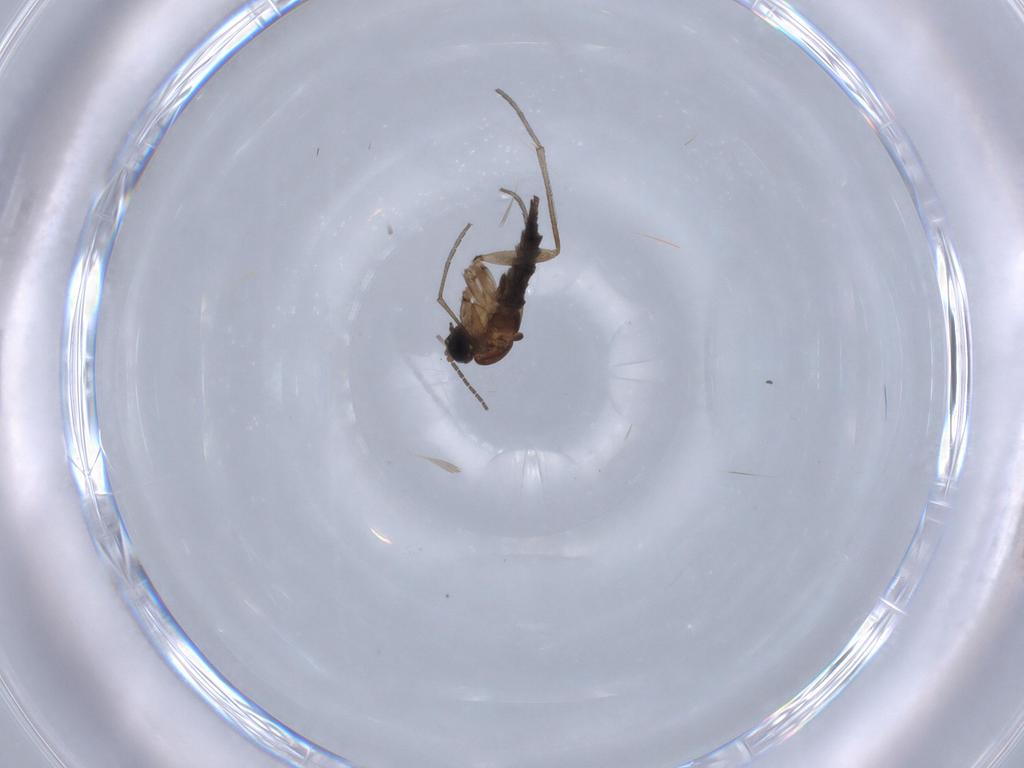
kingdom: Animalia
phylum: Arthropoda
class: Insecta
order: Diptera
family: Sciaridae
